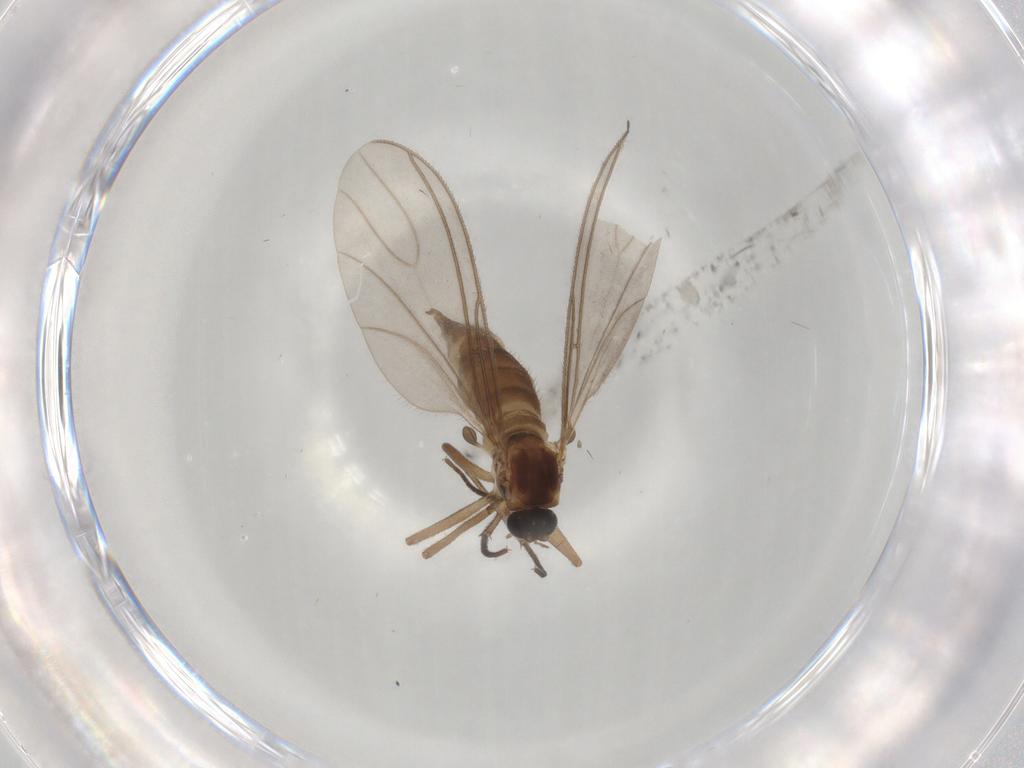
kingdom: Animalia
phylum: Arthropoda
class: Insecta
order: Diptera
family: Sciaridae
